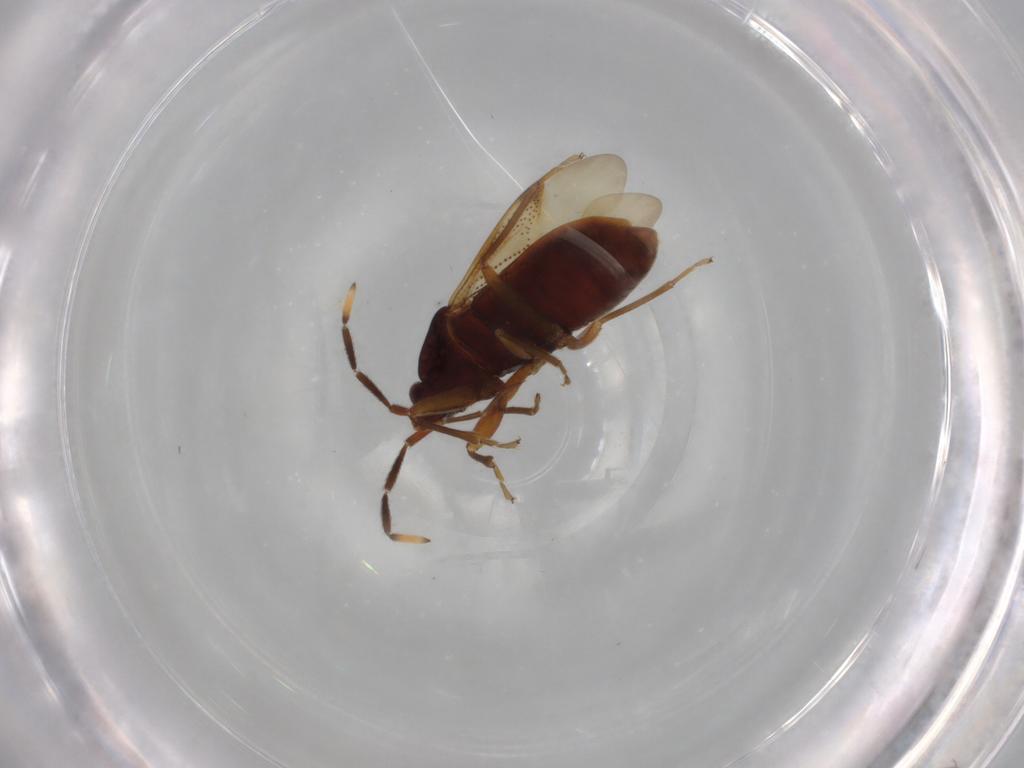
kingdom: Animalia
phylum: Arthropoda
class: Insecta
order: Hemiptera
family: Rhyparochromidae
